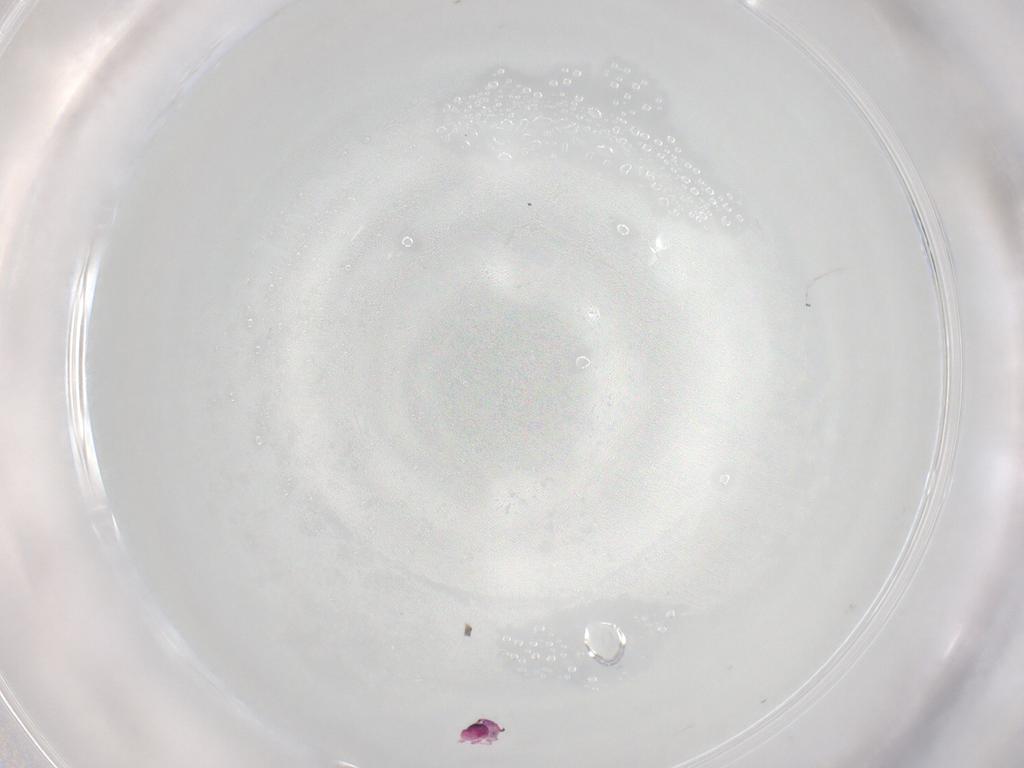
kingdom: Animalia
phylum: Arthropoda
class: Collembola
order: Symphypleona
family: Sminthurididae
